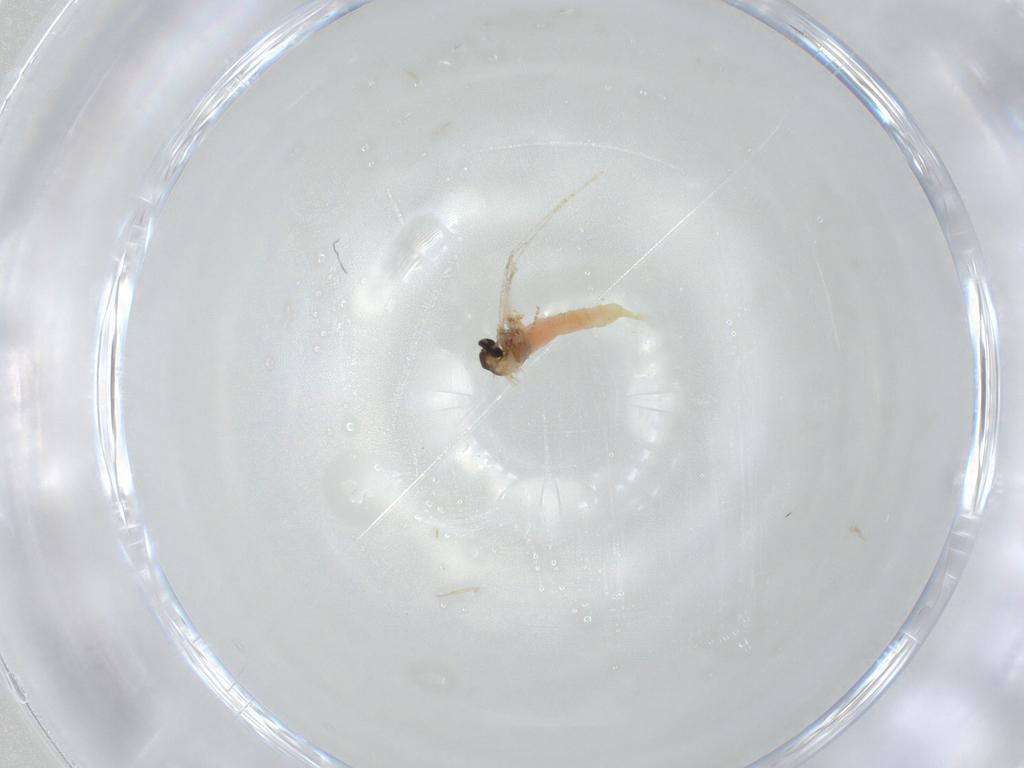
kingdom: Animalia
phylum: Arthropoda
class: Insecta
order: Diptera
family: Cecidomyiidae
